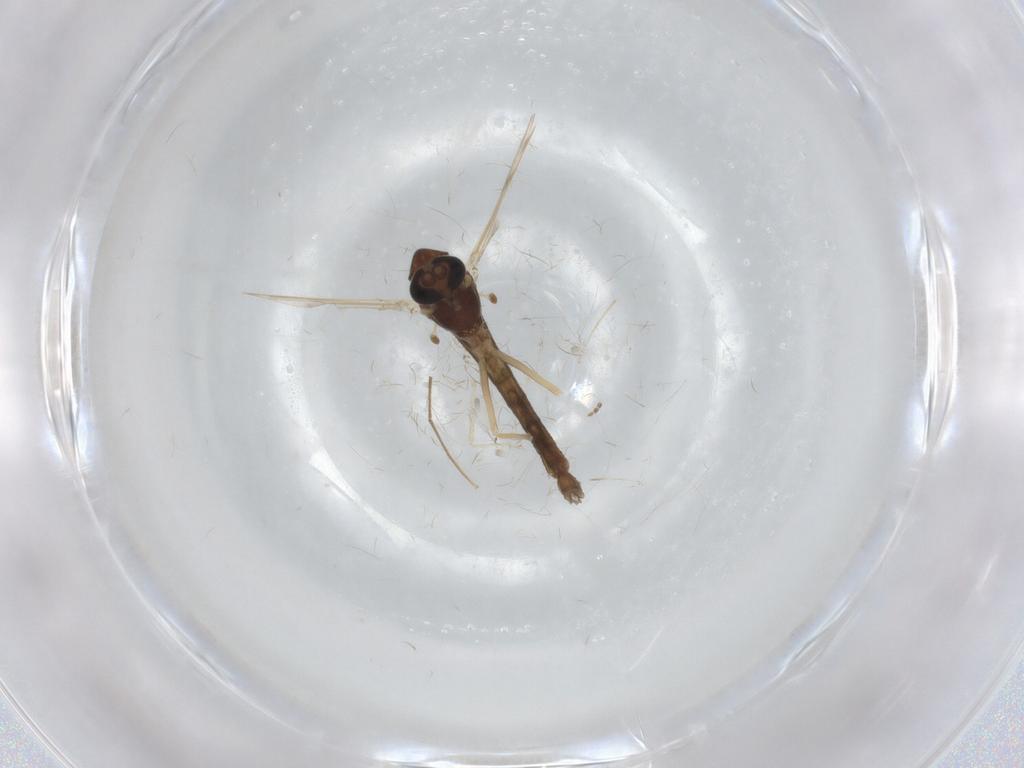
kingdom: Animalia
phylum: Arthropoda
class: Insecta
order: Diptera
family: Chironomidae
